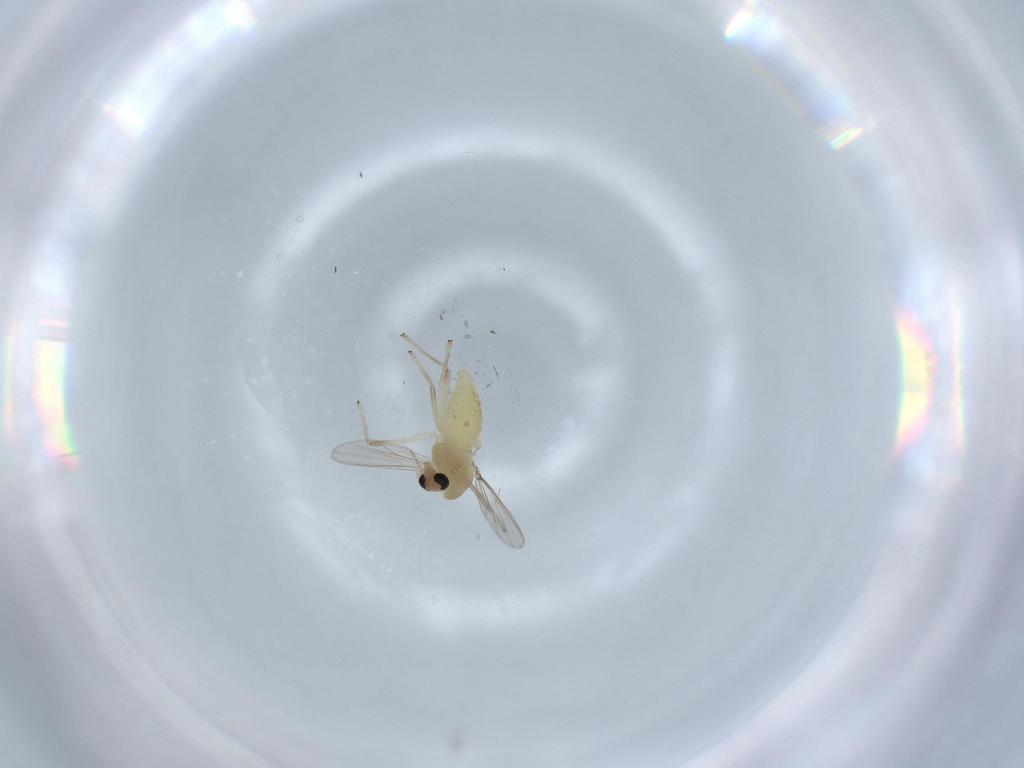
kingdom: Animalia
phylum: Arthropoda
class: Insecta
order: Diptera
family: Chironomidae
